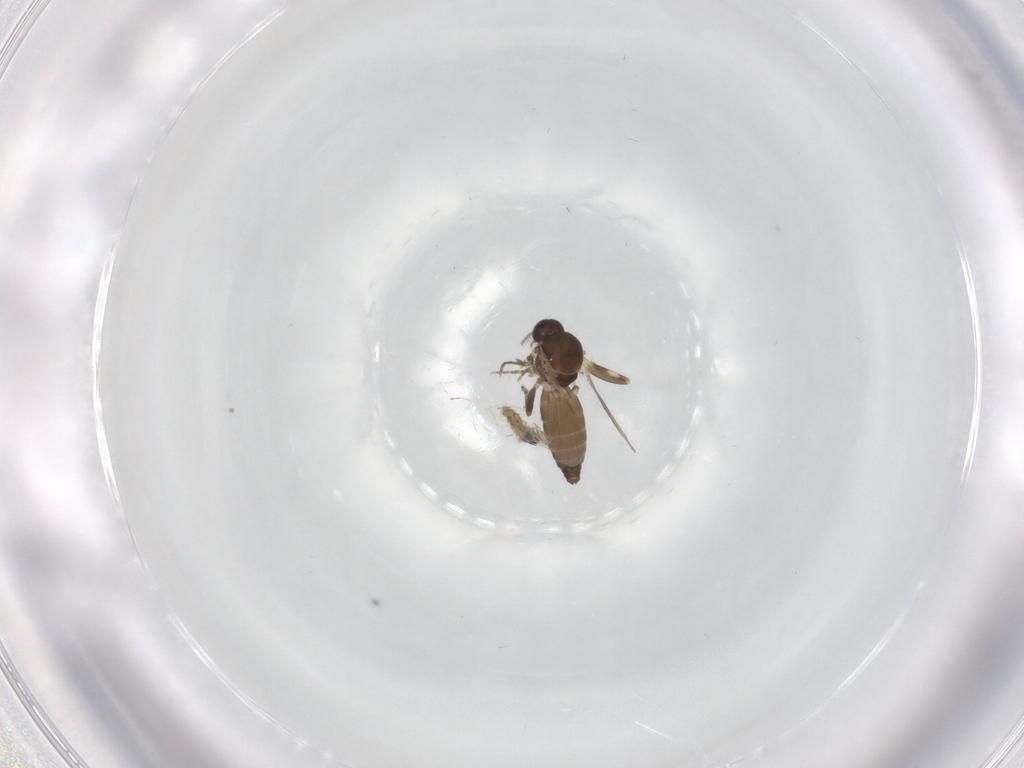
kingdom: Animalia
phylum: Arthropoda
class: Insecta
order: Diptera
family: Ceratopogonidae
